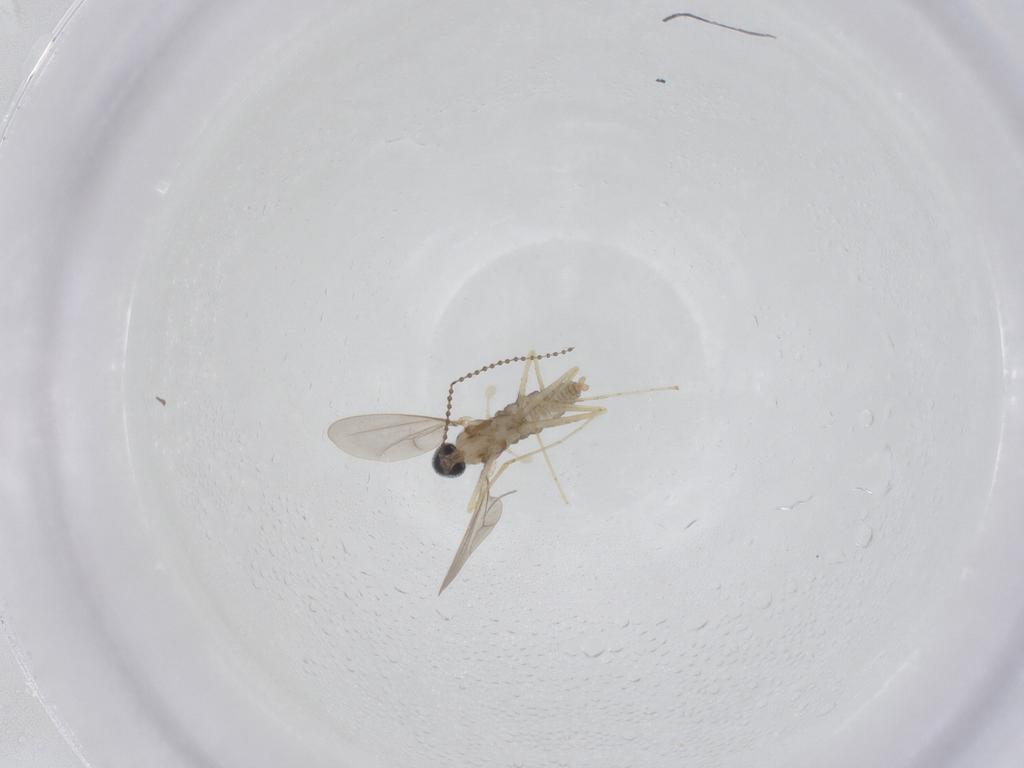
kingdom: Animalia
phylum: Arthropoda
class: Insecta
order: Diptera
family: Cecidomyiidae
